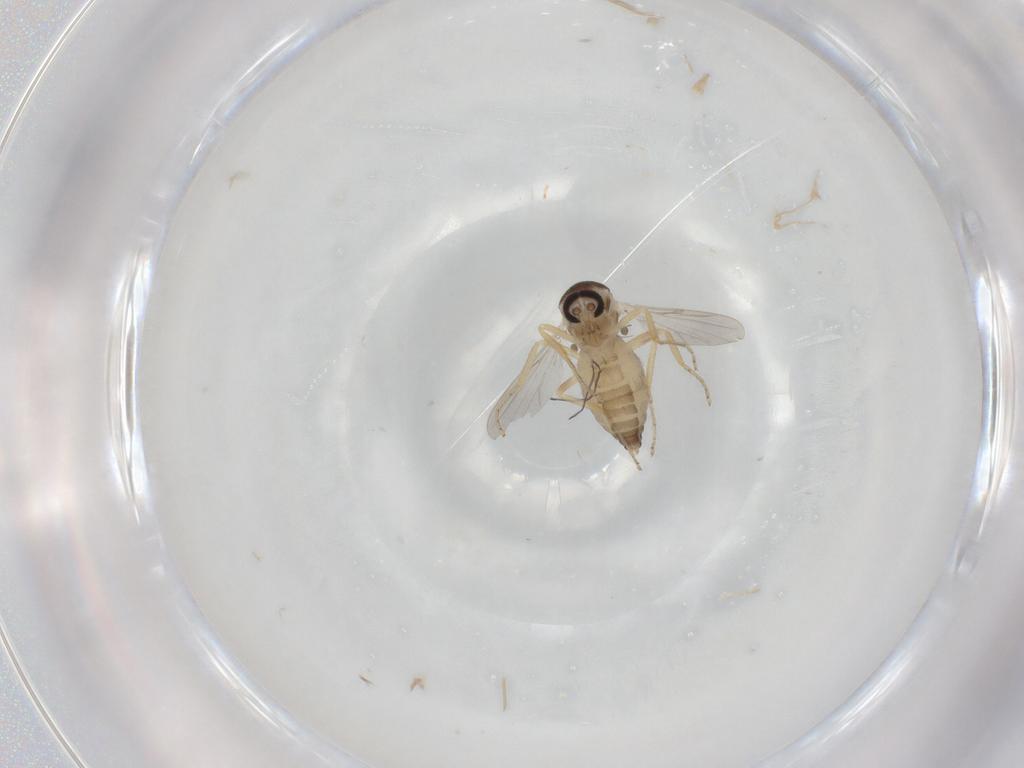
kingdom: Animalia
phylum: Arthropoda
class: Insecta
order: Diptera
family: Ceratopogonidae
